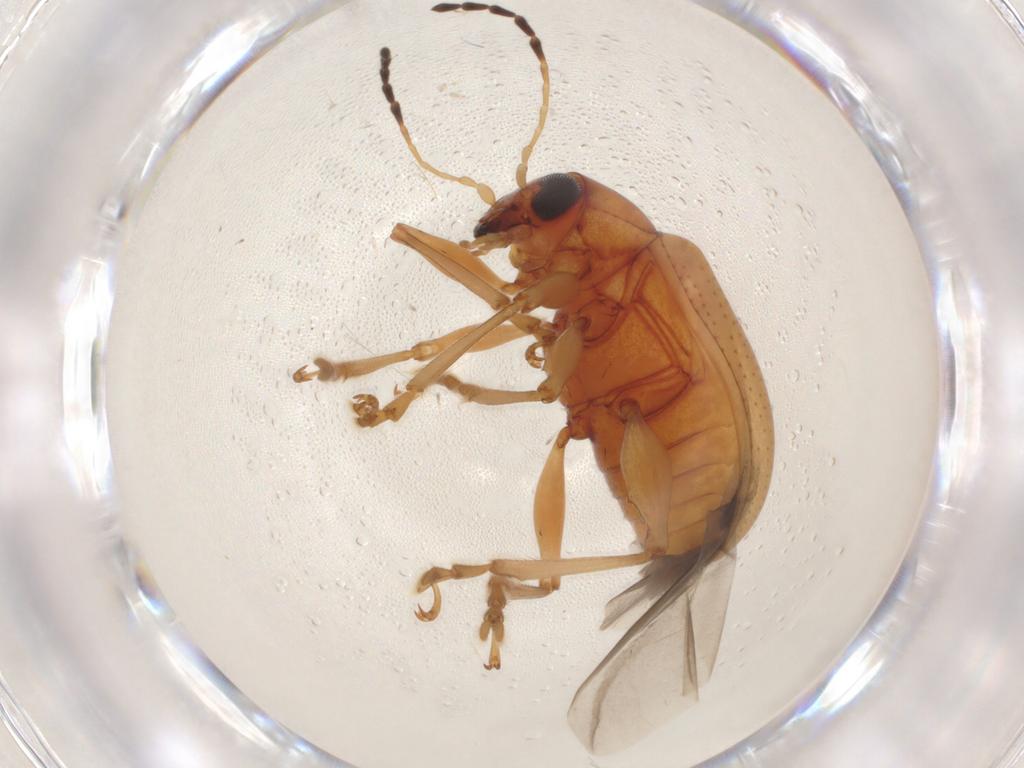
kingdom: Animalia
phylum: Arthropoda
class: Insecta
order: Coleoptera
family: Chrysomelidae
